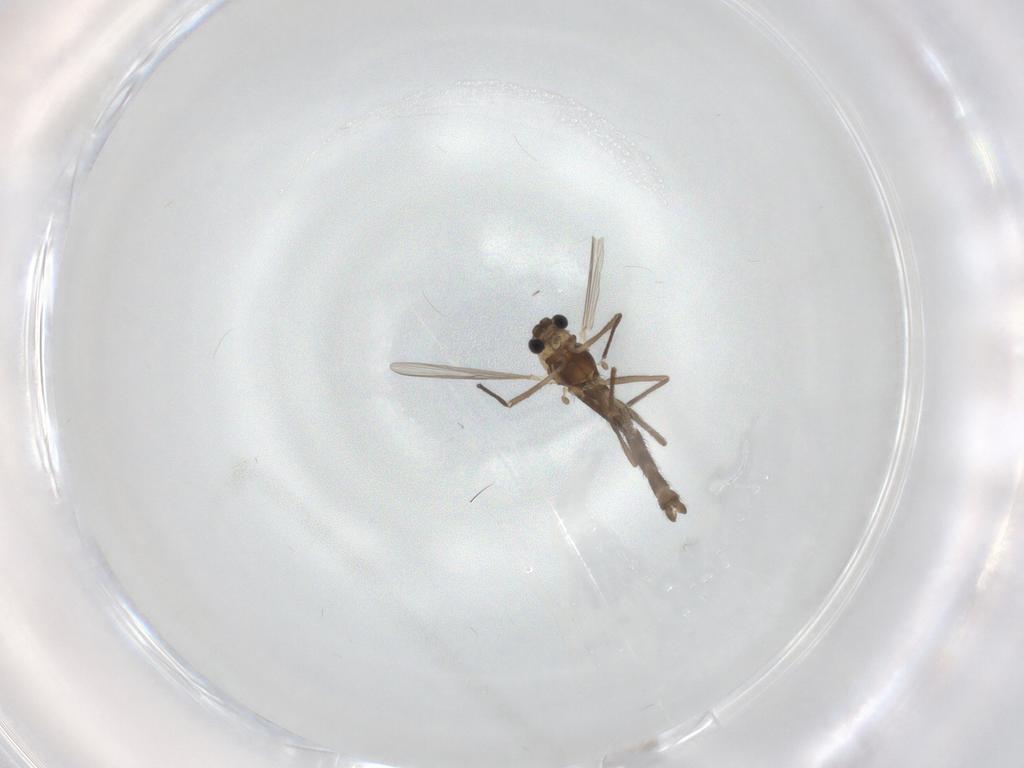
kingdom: Animalia
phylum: Arthropoda
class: Insecta
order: Diptera
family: Chironomidae
